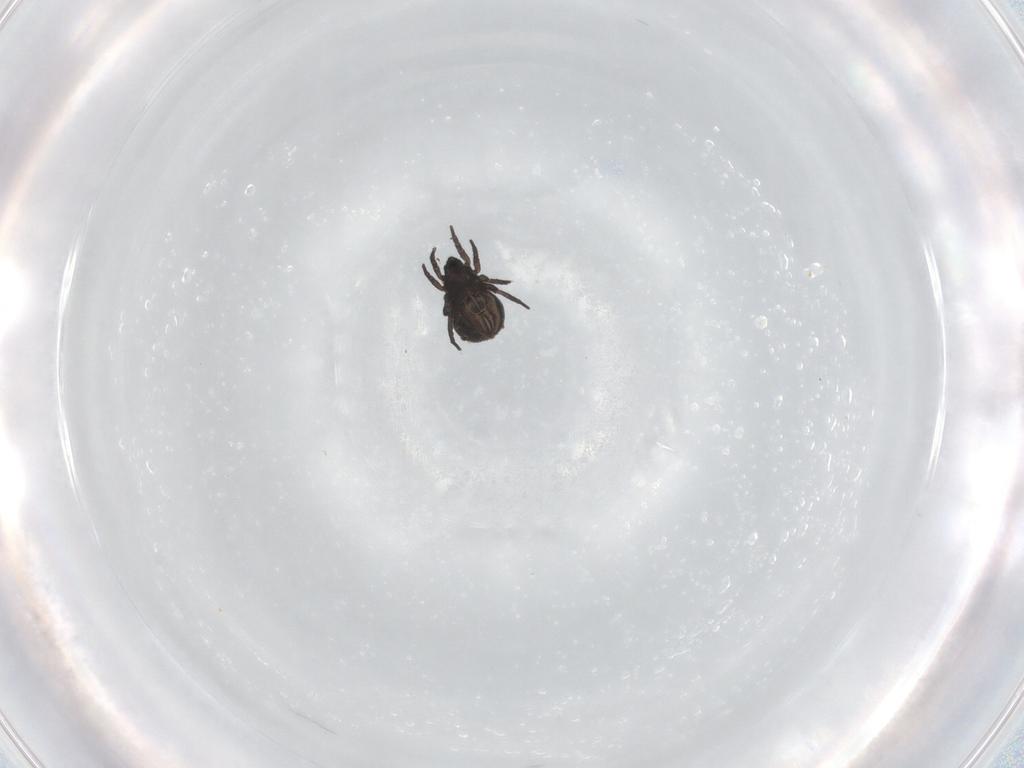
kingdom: Animalia
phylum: Arthropoda
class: Arachnida
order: Sarcoptiformes
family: Crotoniidae
